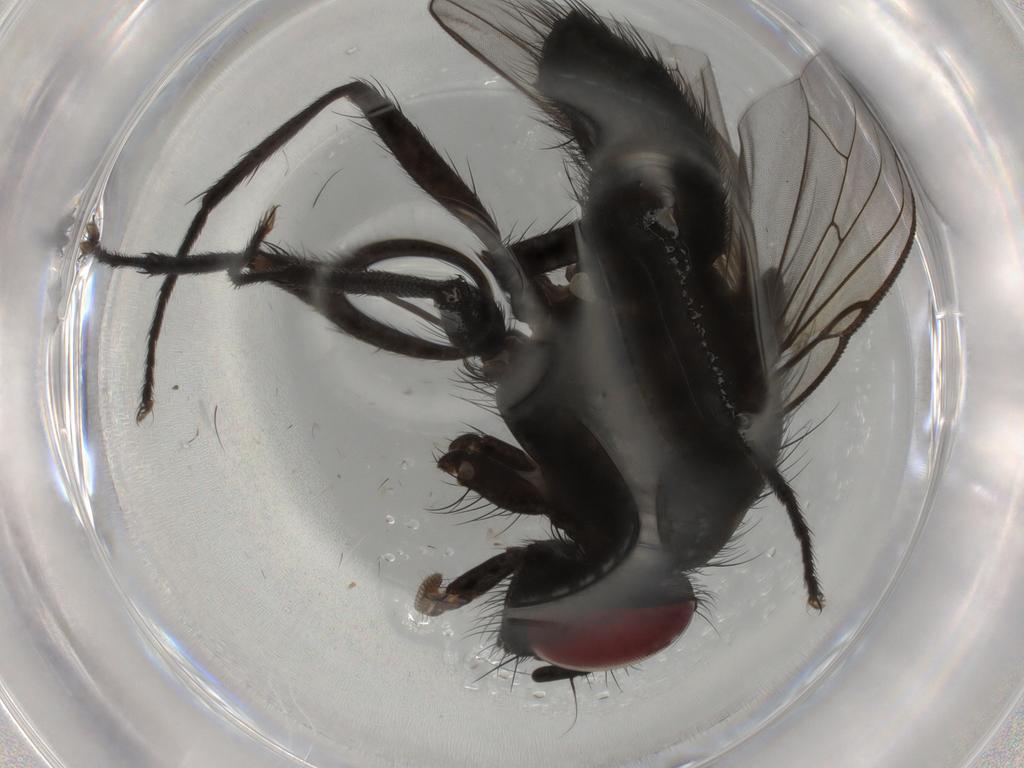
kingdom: Animalia
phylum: Arthropoda
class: Insecta
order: Diptera
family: Muscidae
